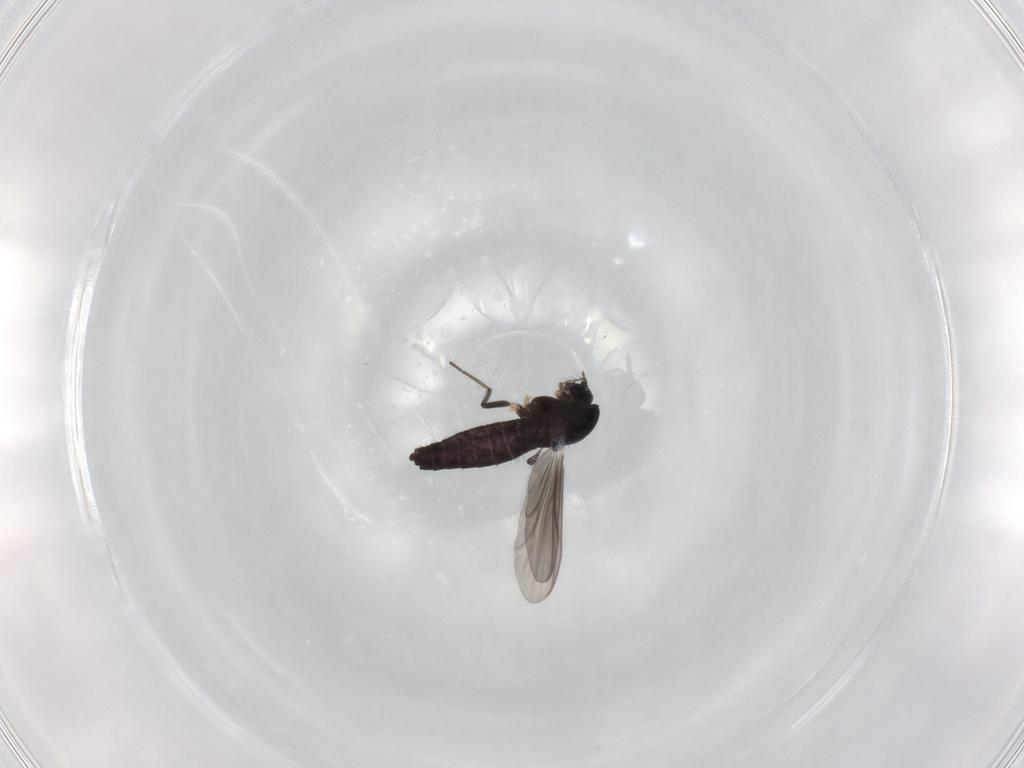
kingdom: Animalia
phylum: Arthropoda
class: Insecta
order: Diptera
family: Chironomidae
